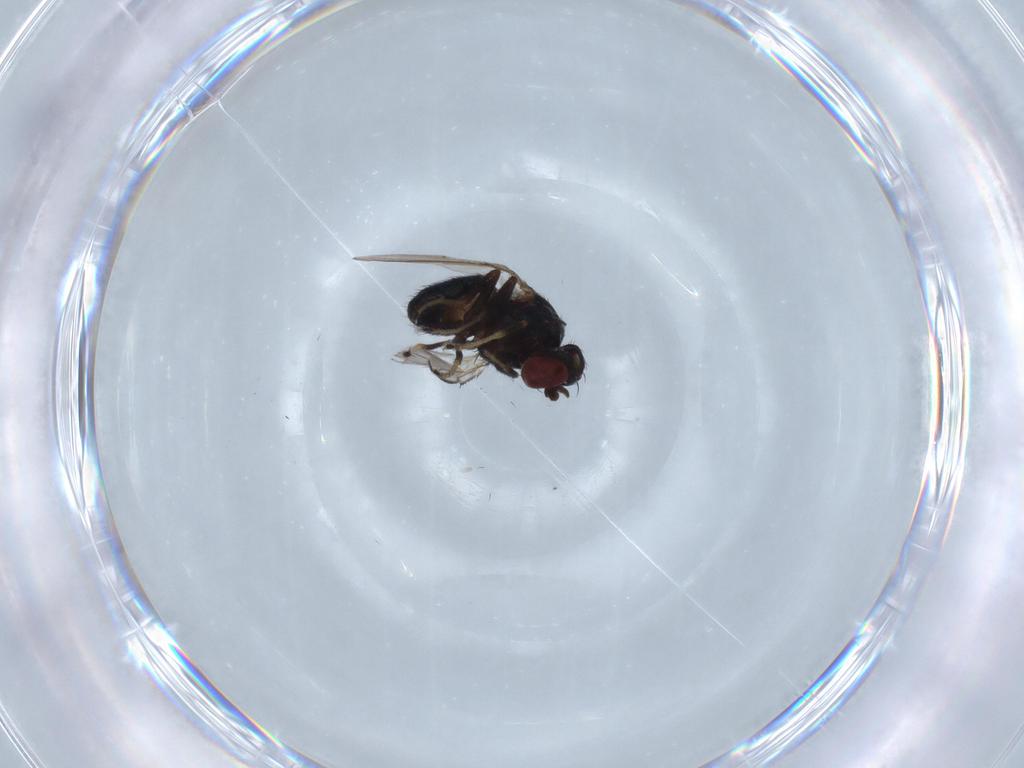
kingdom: Animalia
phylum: Arthropoda
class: Insecta
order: Diptera
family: Ephydridae
